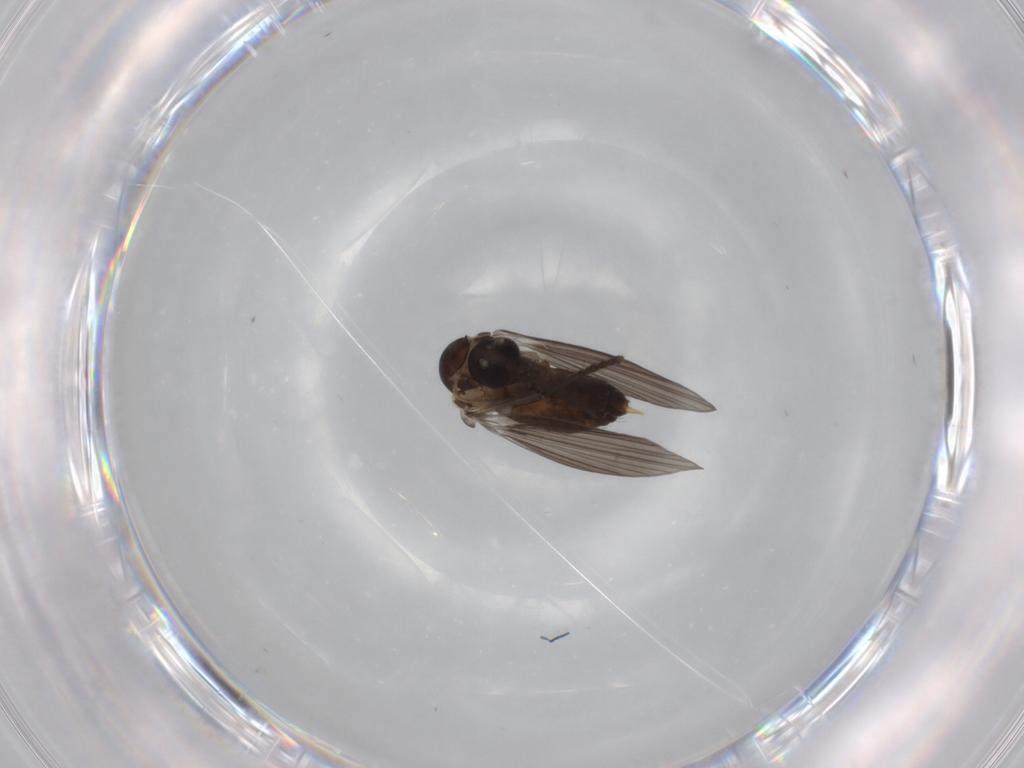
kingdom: Animalia
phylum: Arthropoda
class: Insecta
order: Diptera
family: Psychodidae
